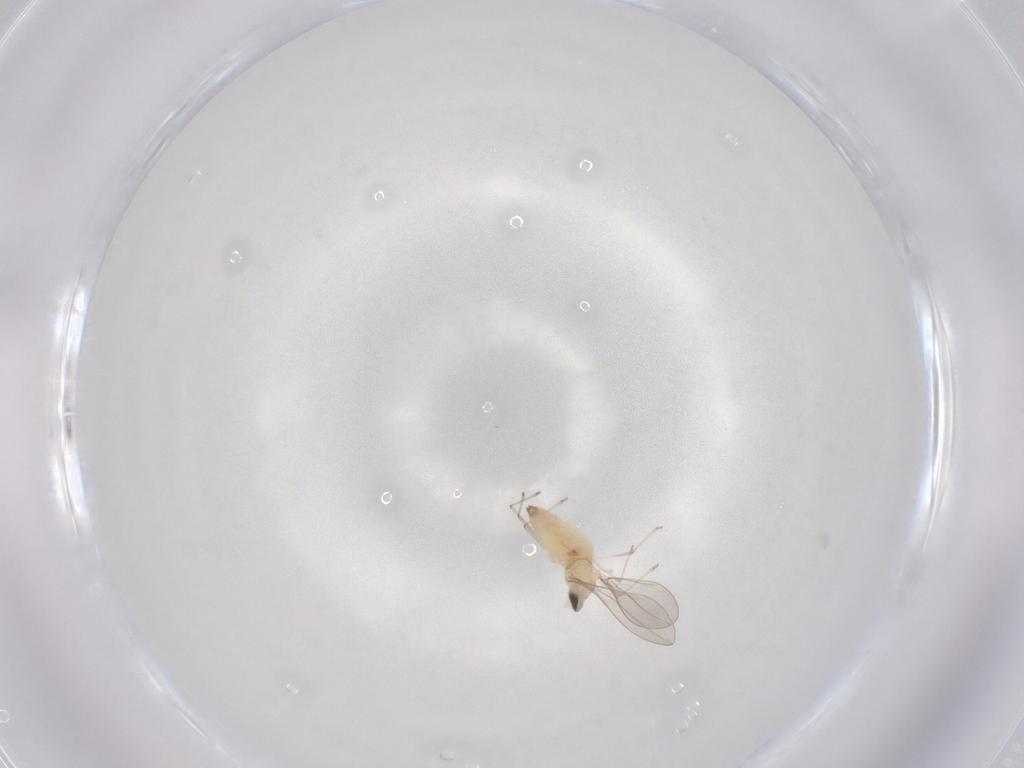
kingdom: Animalia
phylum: Arthropoda
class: Insecta
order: Diptera
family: Cecidomyiidae
